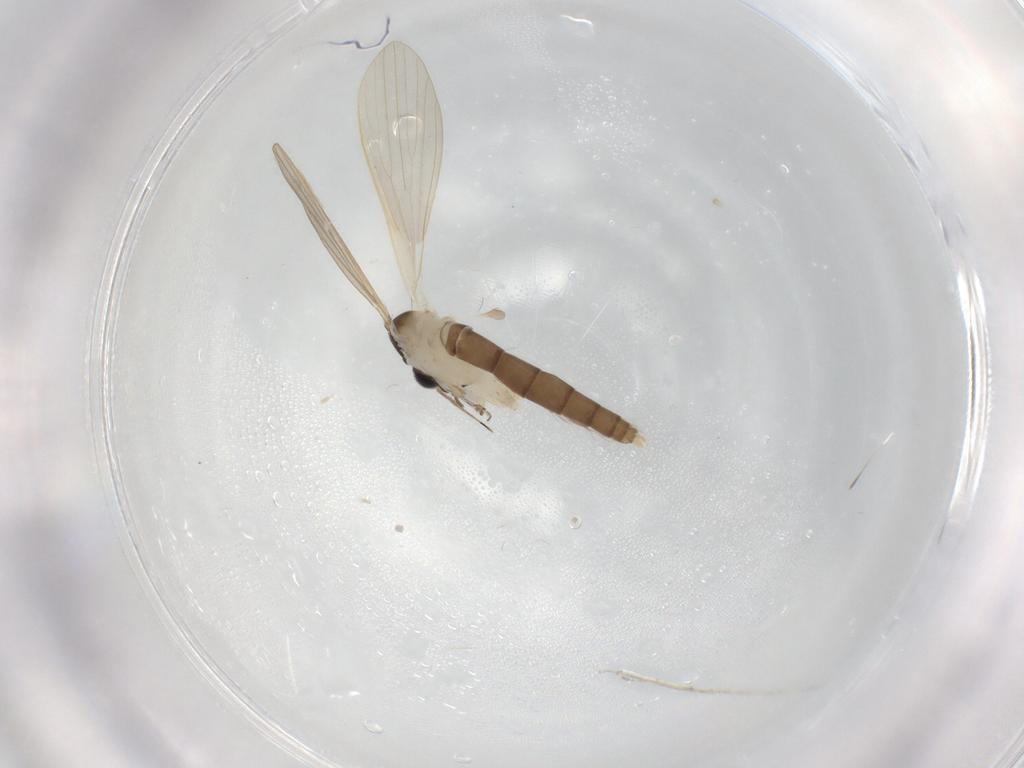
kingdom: Animalia
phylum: Arthropoda
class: Insecta
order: Diptera
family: Psychodidae
